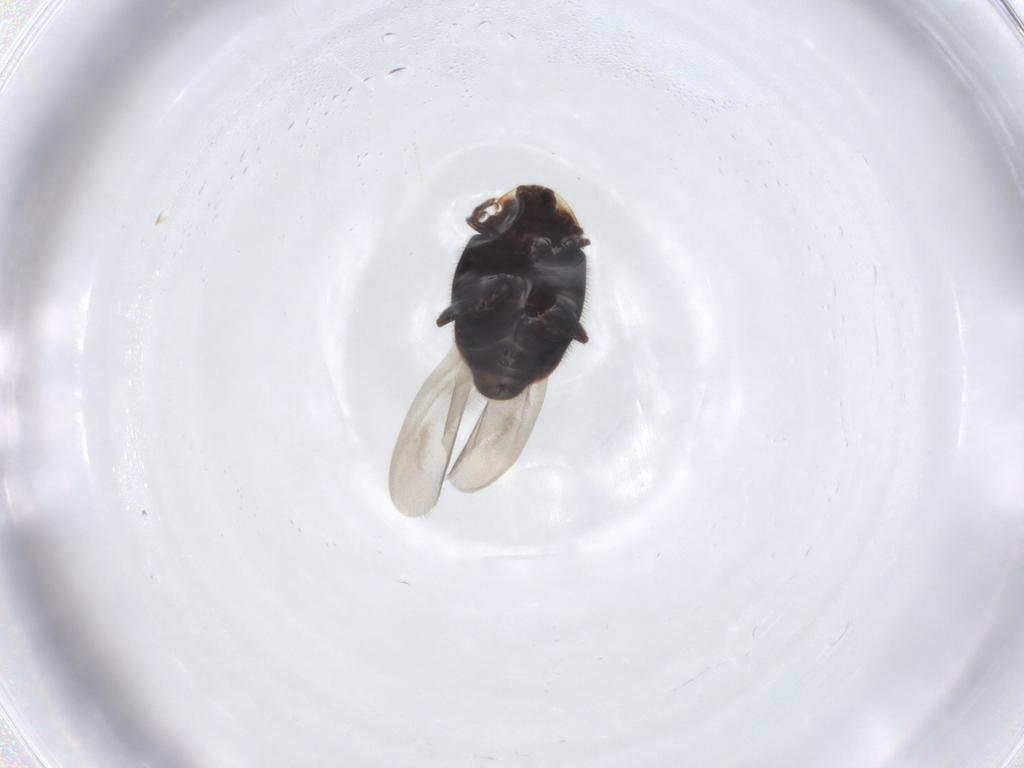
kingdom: Animalia
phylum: Arthropoda
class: Insecta
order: Coleoptera
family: Corylophidae
